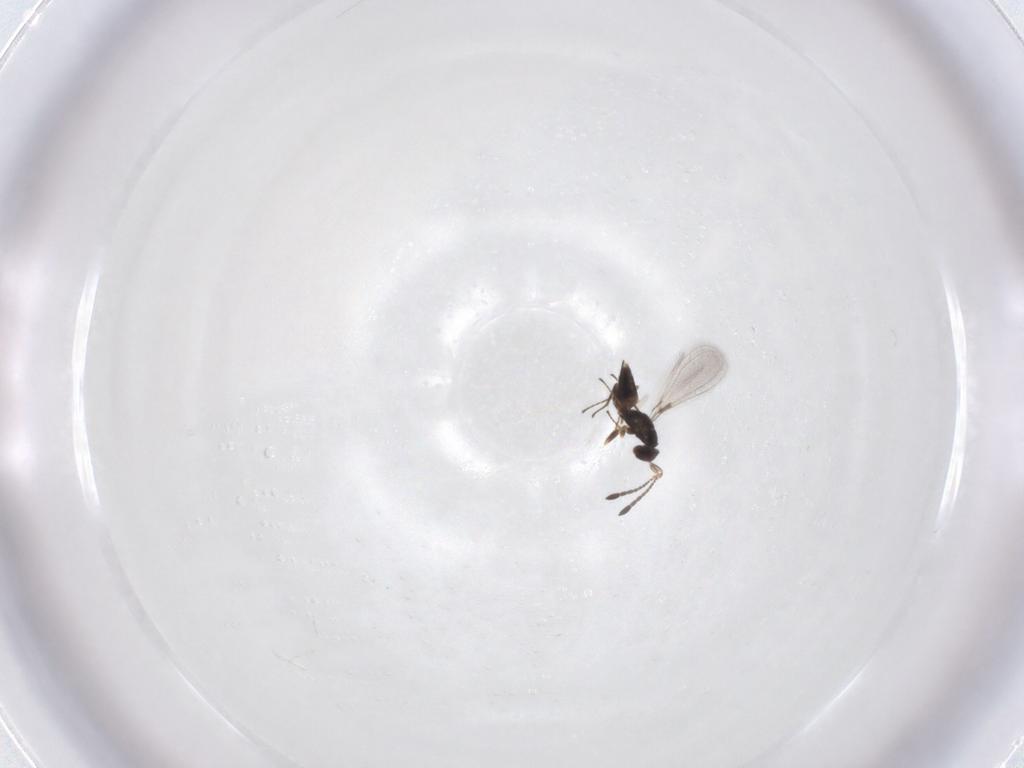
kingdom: Animalia
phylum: Arthropoda
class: Insecta
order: Hymenoptera
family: Mymaridae
